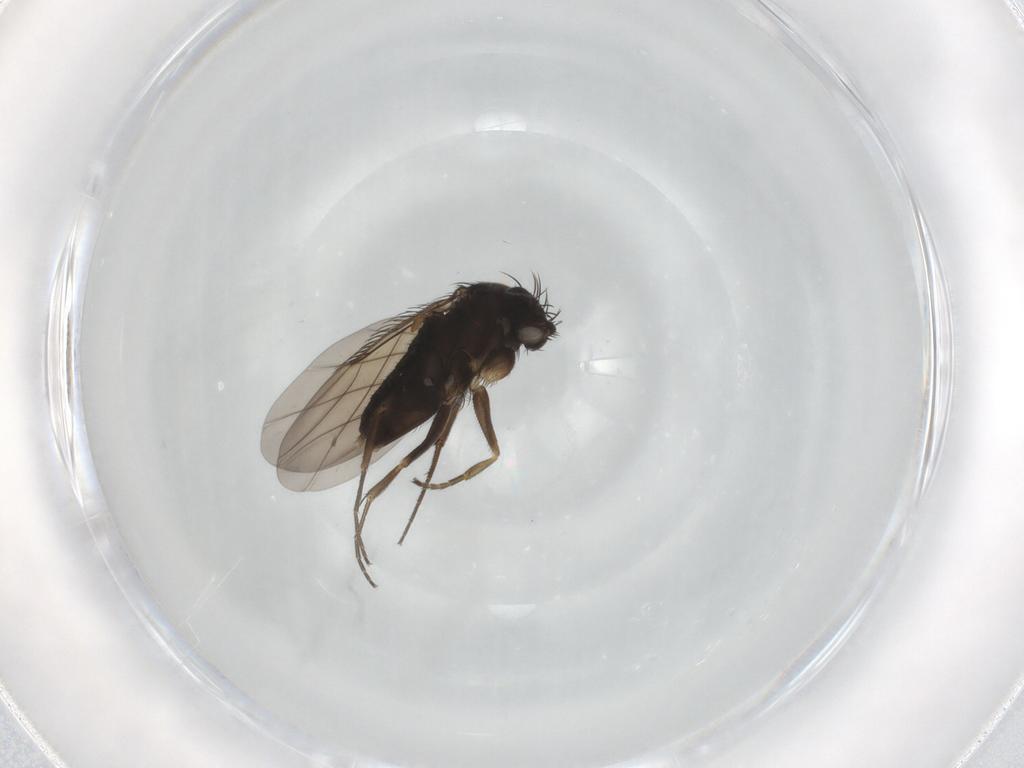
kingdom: Animalia
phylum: Arthropoda
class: Insecta
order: Diptera
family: Phoridae
